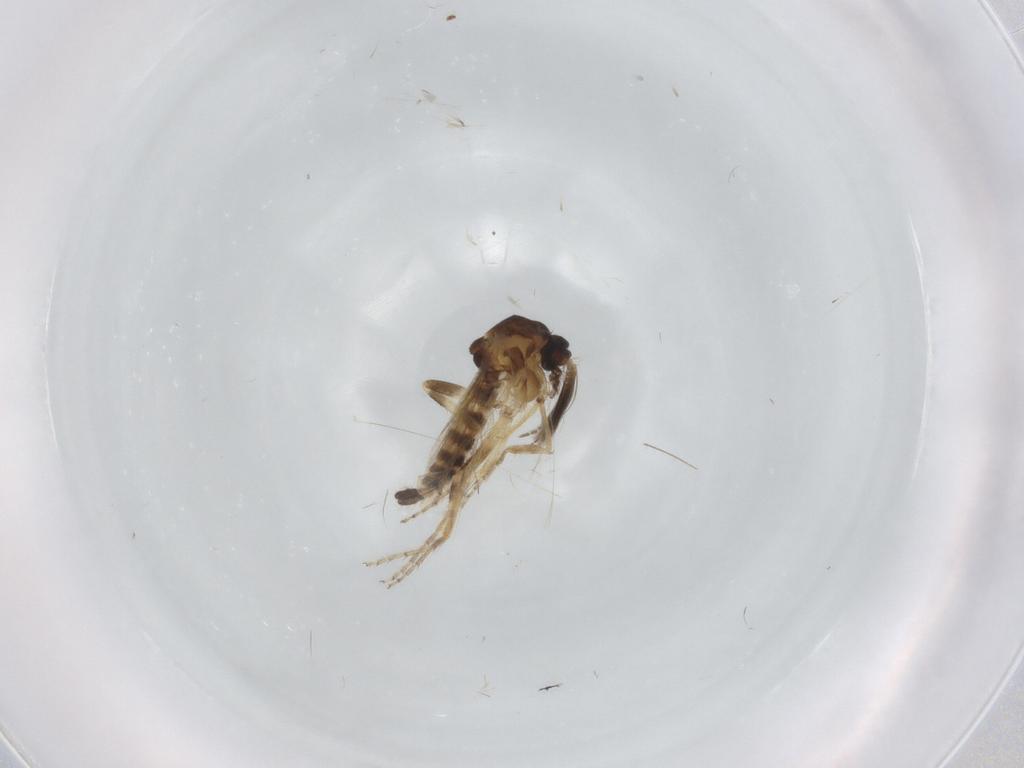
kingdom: Animalia
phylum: Arthropoda
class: Insecta
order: Diptera
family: Ceratopogonidae
